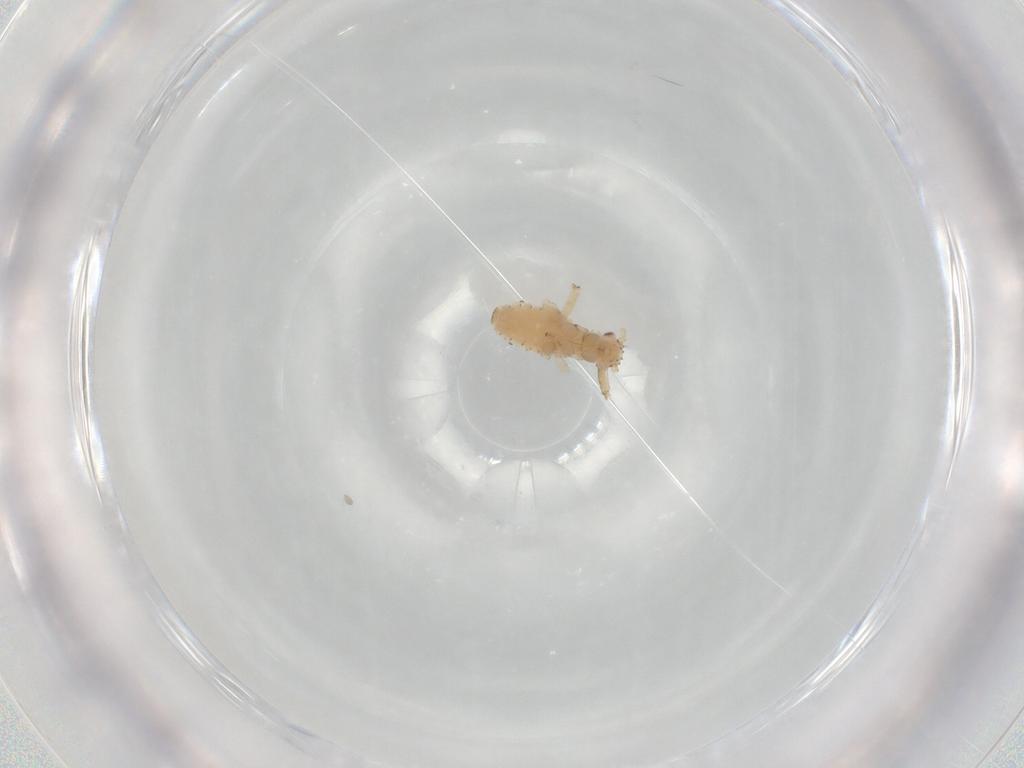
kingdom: Animalia
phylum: Arthropoda
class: Insecta
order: Hemiptera
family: Aphididae
